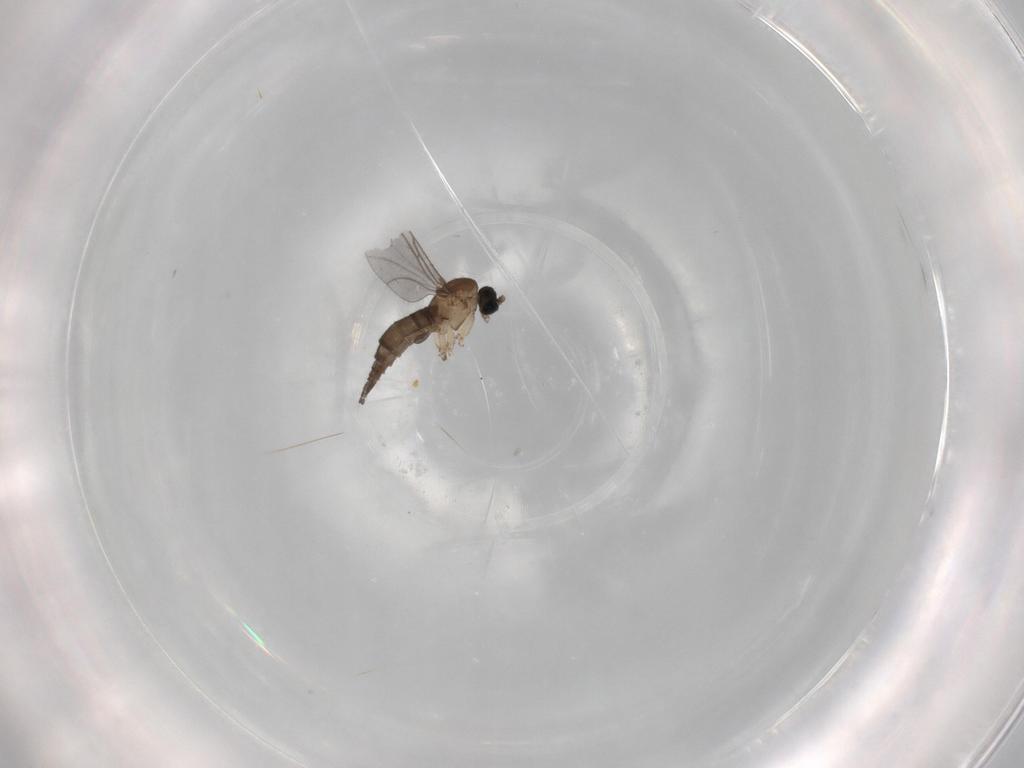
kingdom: Animalia
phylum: Arthropoda
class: Insecta
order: Diptera
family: Sciaridae
